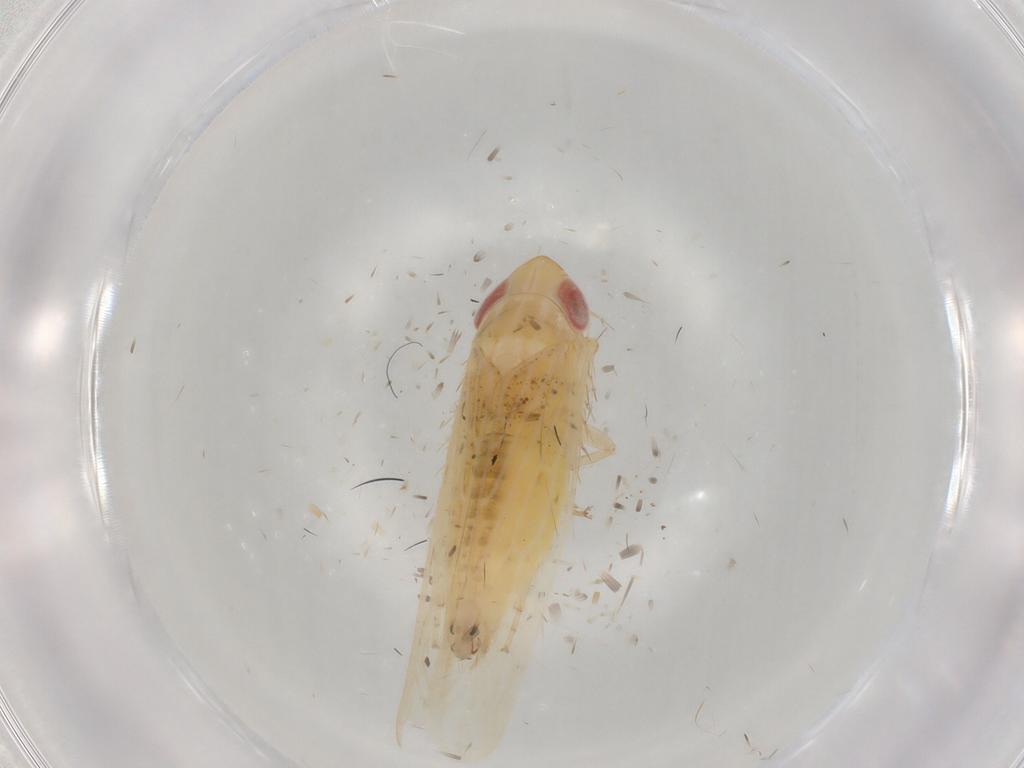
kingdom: Animalia
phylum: Arthropoda
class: Insecta
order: Hemiptera
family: Cicadellidae
